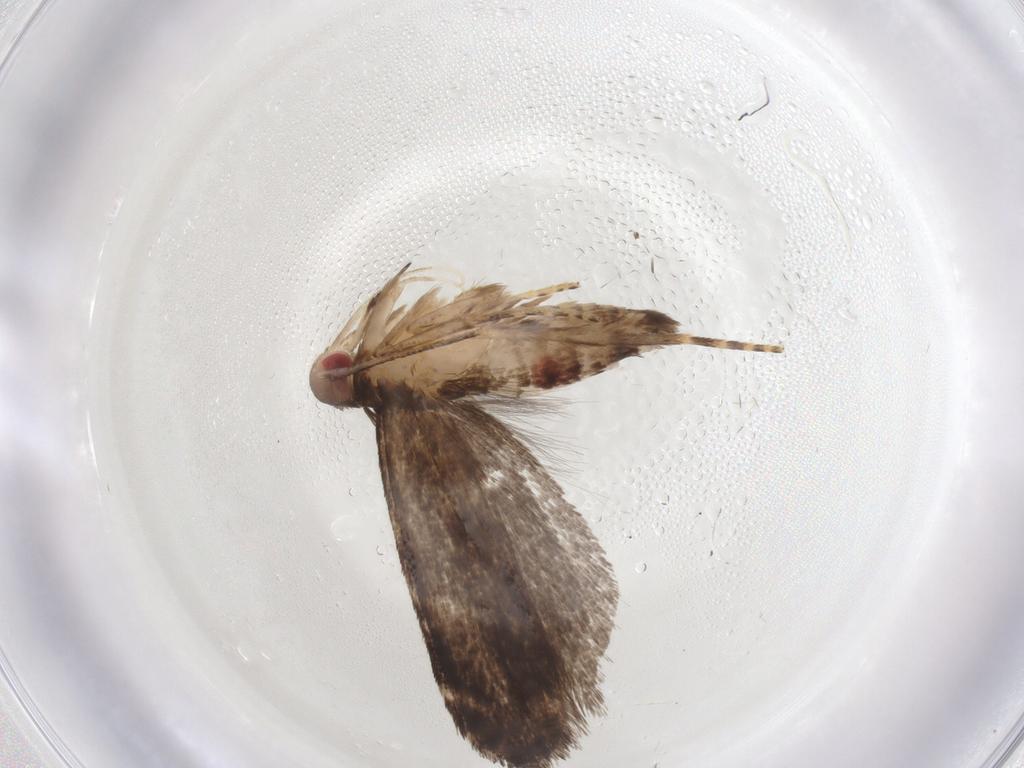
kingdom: Animalia
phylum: Arthropoda
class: Insecta
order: Lepidoptera
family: Gelechiidae
